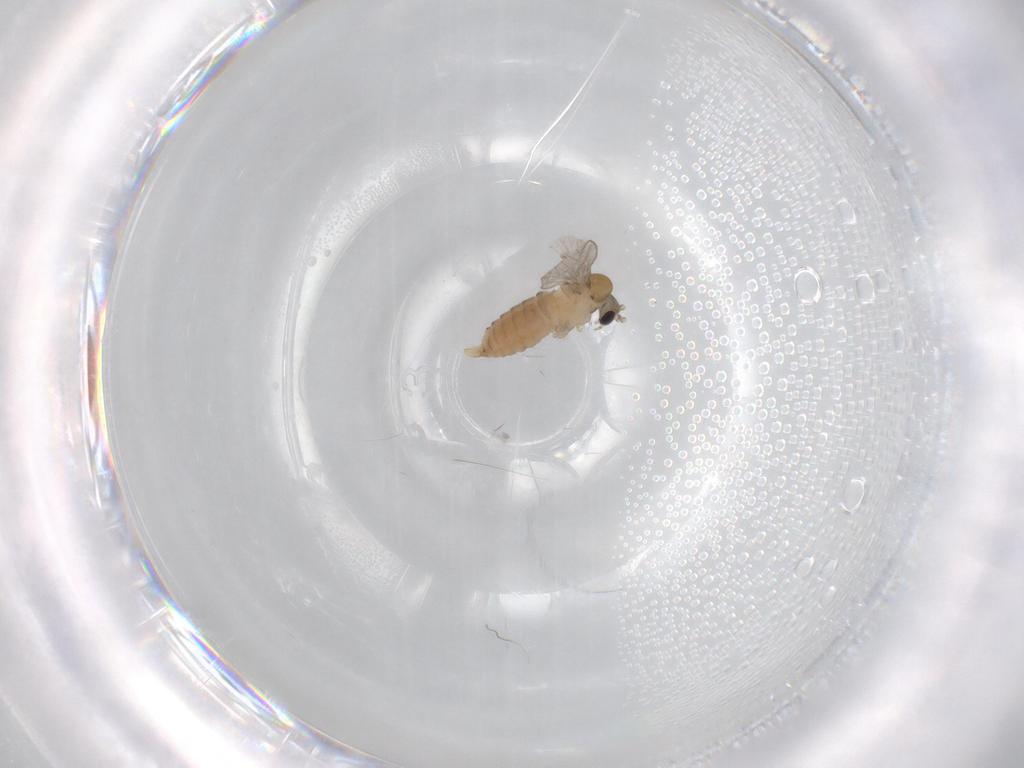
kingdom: Animalia
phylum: Arthropoda
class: Insecta
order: Diptera
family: Psychodidae
